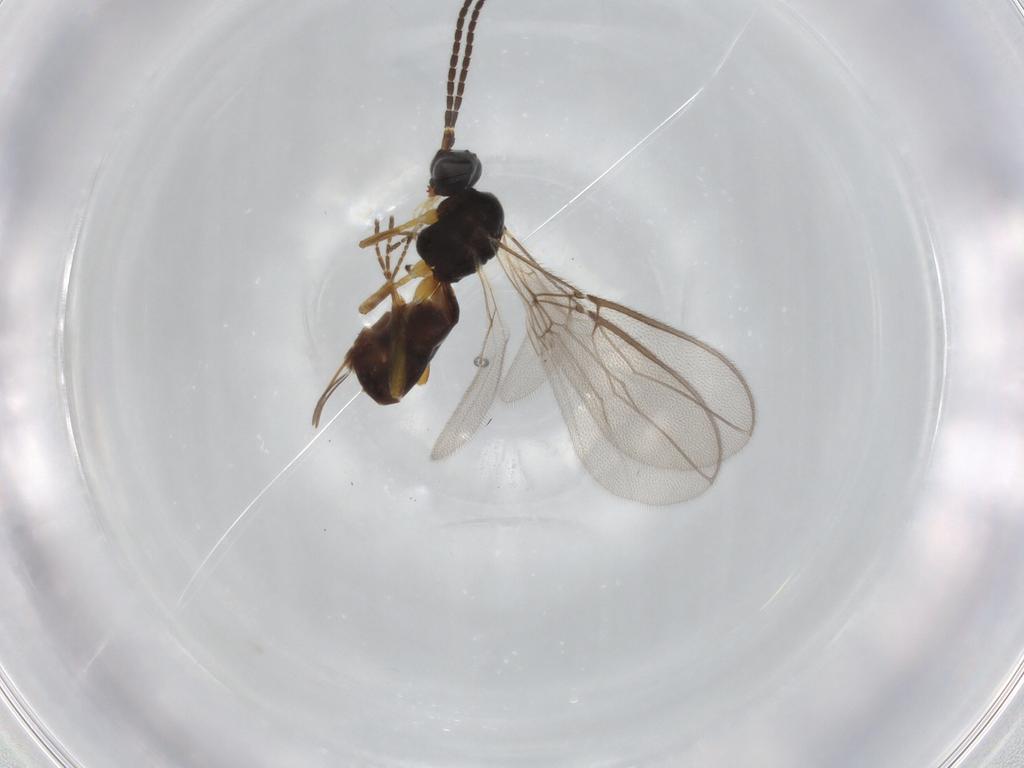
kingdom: Animalia
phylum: Arthropoda
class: Insecta
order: Hymenoptera
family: Braconidae
